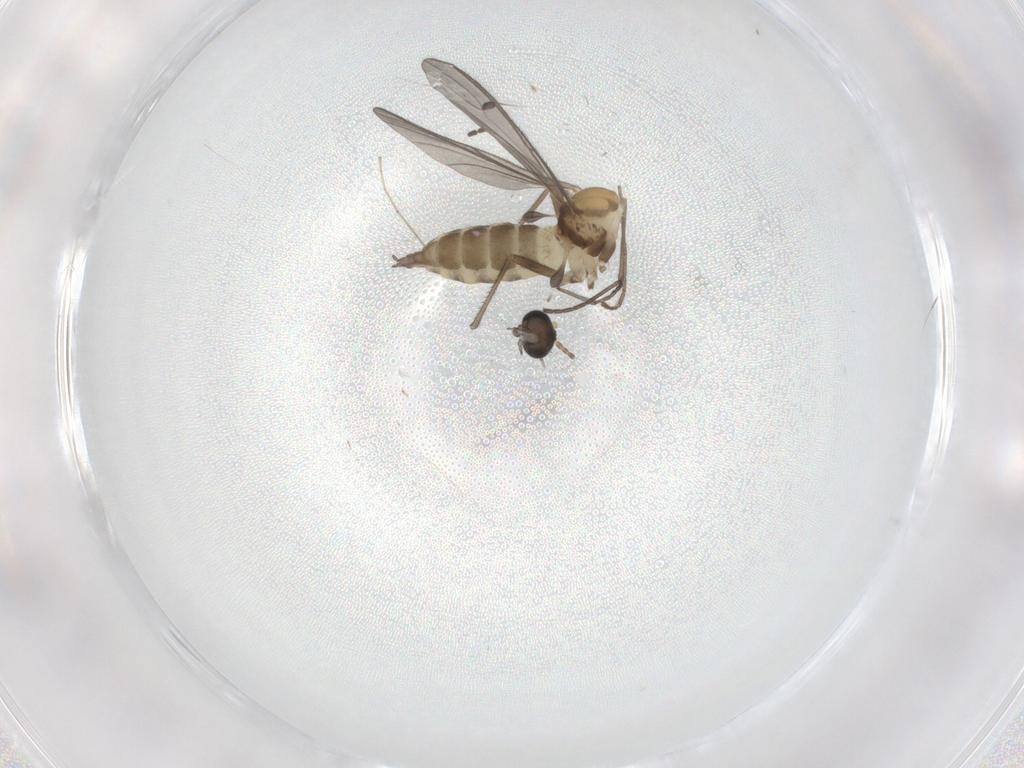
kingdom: Animalia
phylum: Arthropoda
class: Insecta
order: Diptera
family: Sciaridae
